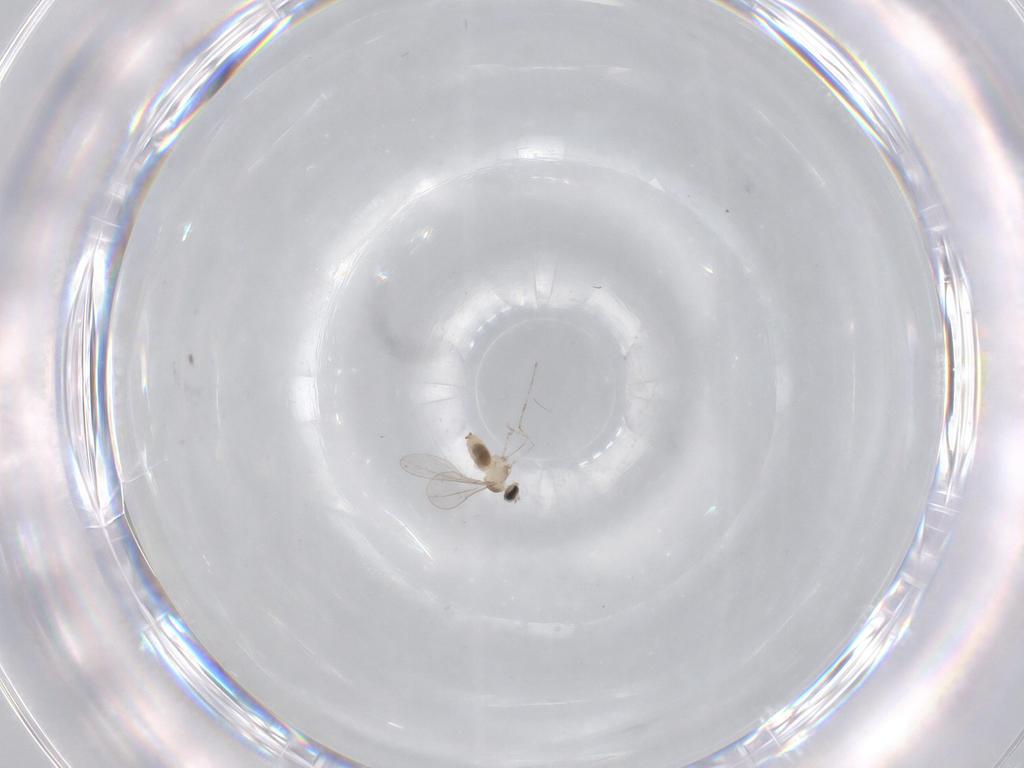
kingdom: Animalia
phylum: Arthropoda
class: Insecta
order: Diptera
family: Cecidomyiidae
